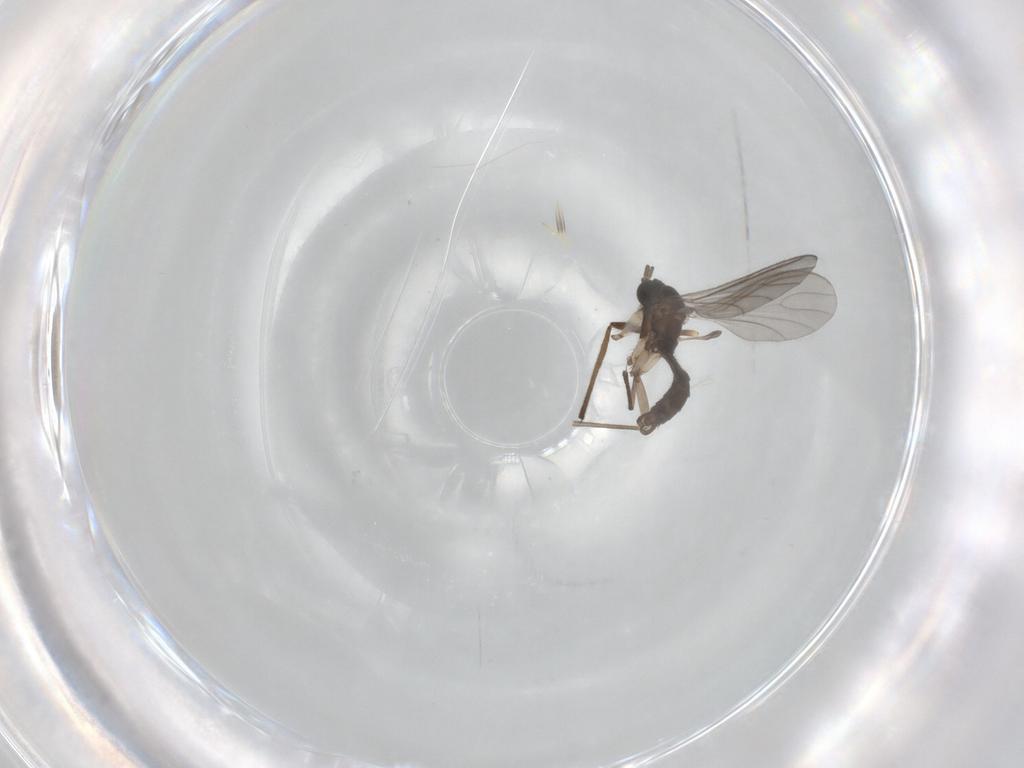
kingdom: Animalia
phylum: Arthropoda
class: Insecta
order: Diptera
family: Sciaridae
